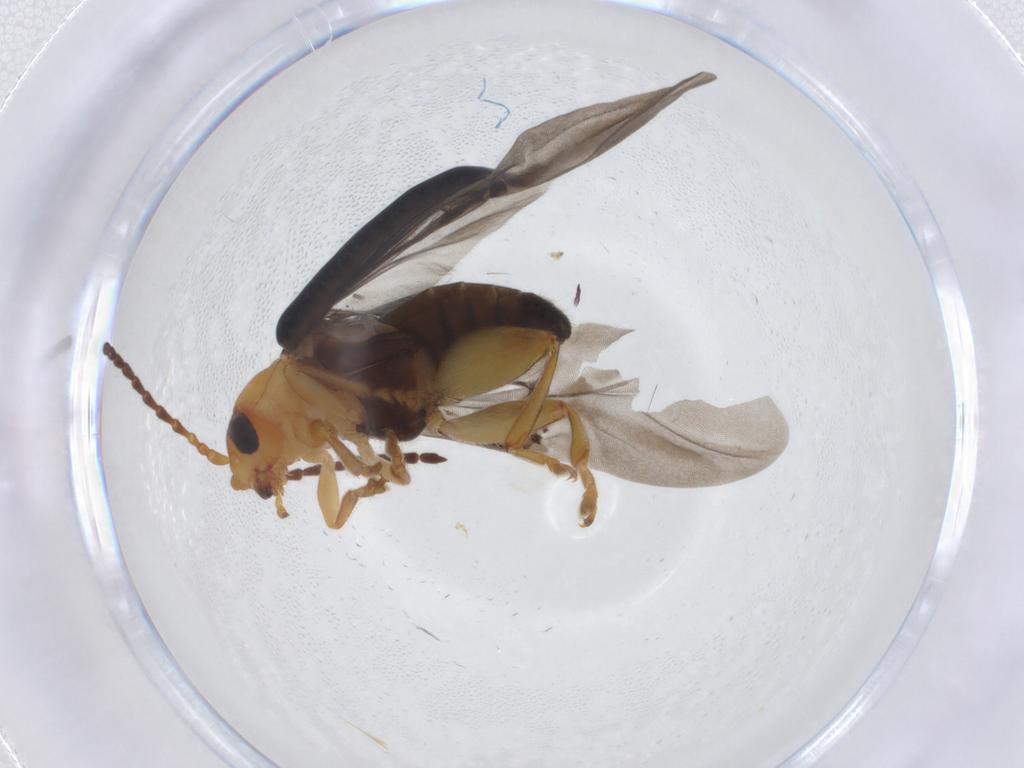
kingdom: Animalia
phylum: Arthropoda
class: Insecta
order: Coleoptera
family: Chrysomelidae
